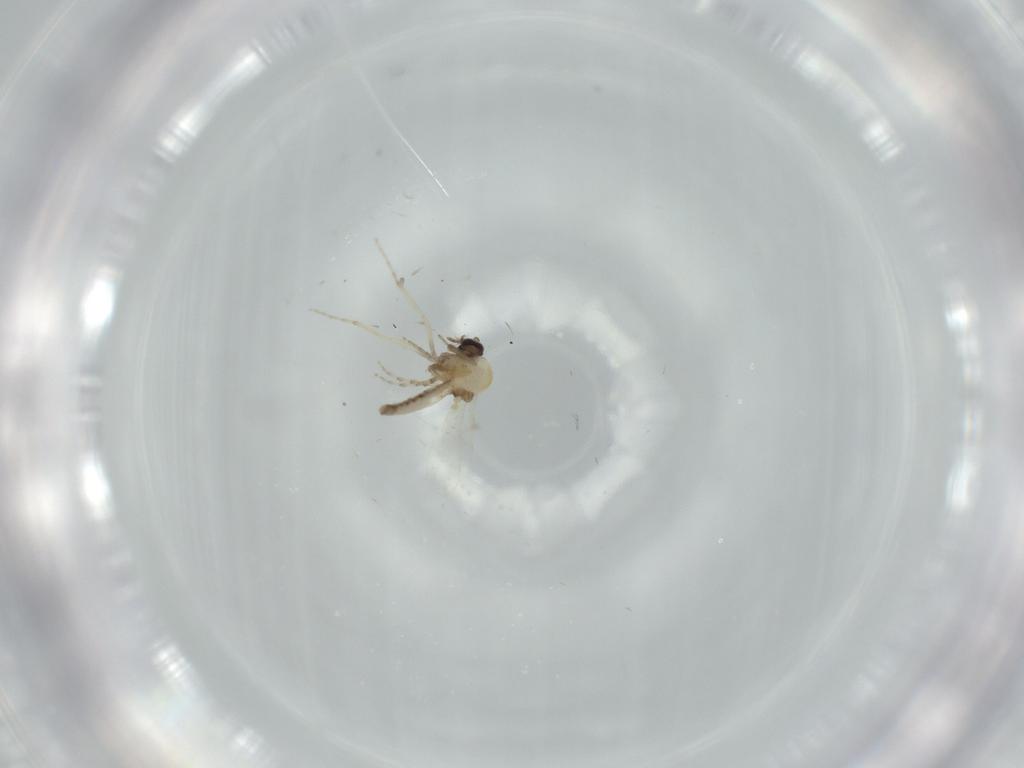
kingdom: Animalia
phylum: Arthropoda
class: Insecta
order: Diptera
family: Ceratopogonidae
